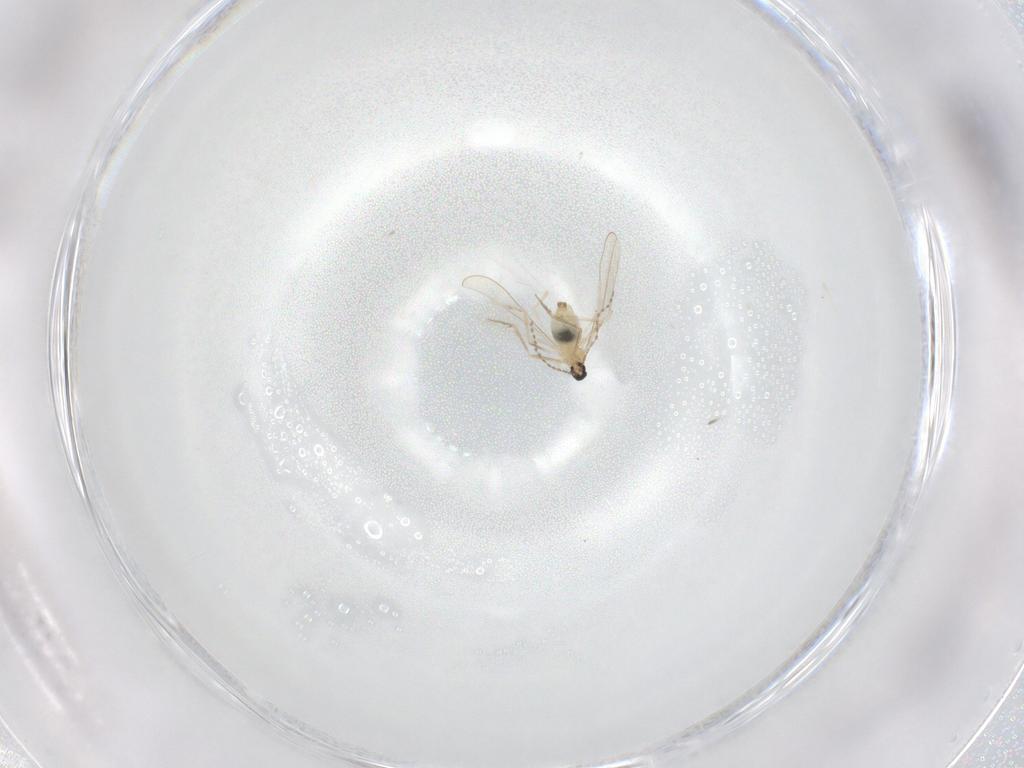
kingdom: Animalia
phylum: Arthropoda
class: Insecta
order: Diptera
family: Cecidomyiidae
